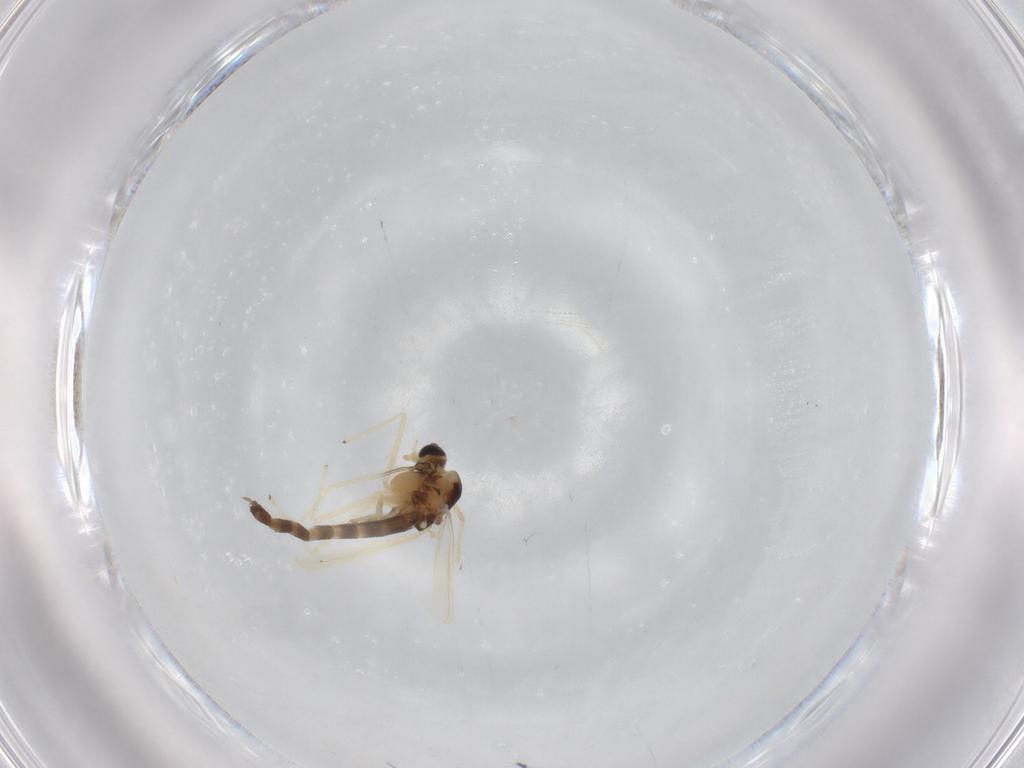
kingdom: Animalia
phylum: Arthropoda
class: Insecta
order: Diptera
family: Chironomidae
